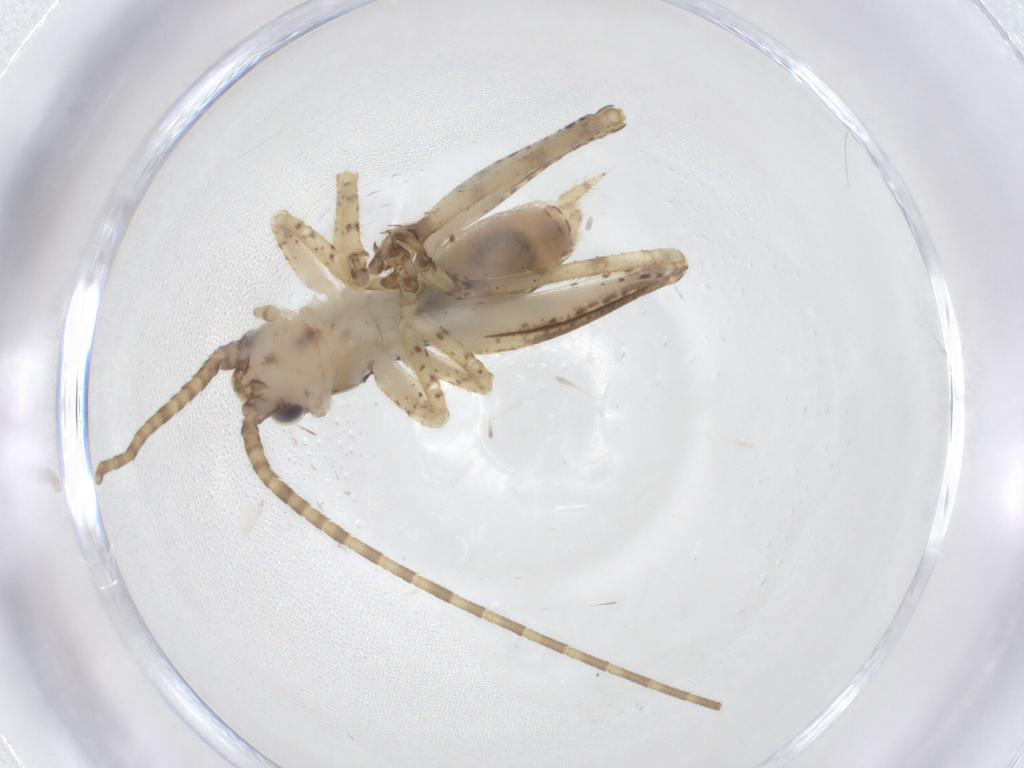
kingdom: Animalia
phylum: Arthropoda
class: Insecta
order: Orthoptera
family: Gryllidae
